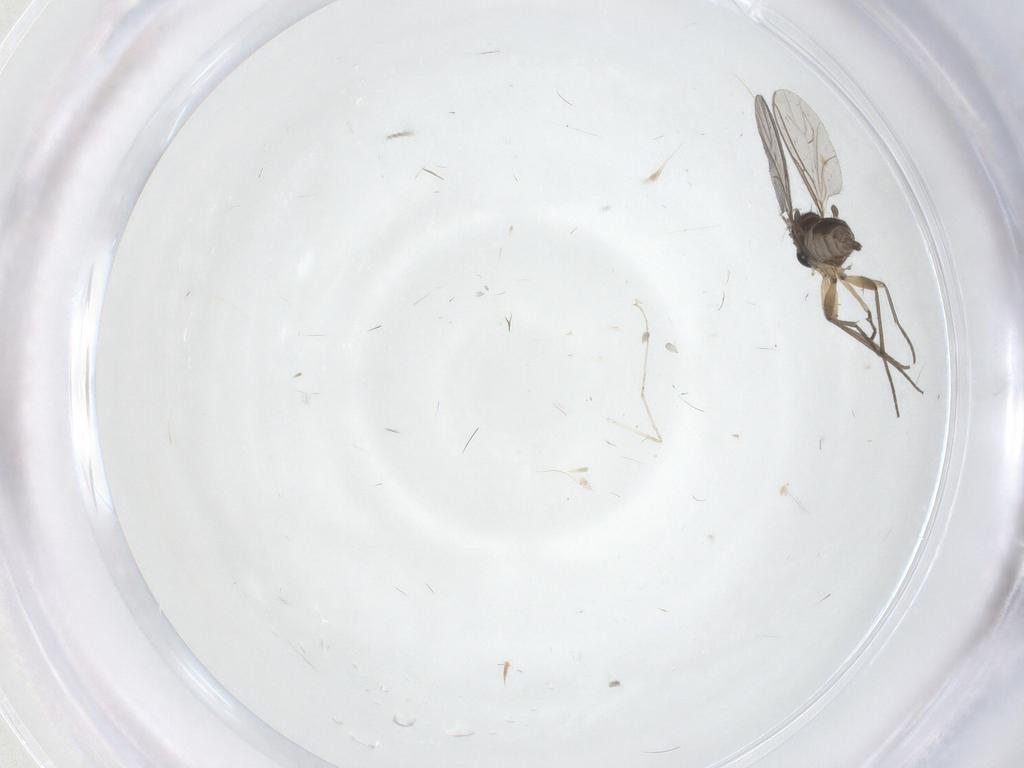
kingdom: Animalia
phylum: Arthropoda
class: Insecta
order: Diptera
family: Sciaridae
